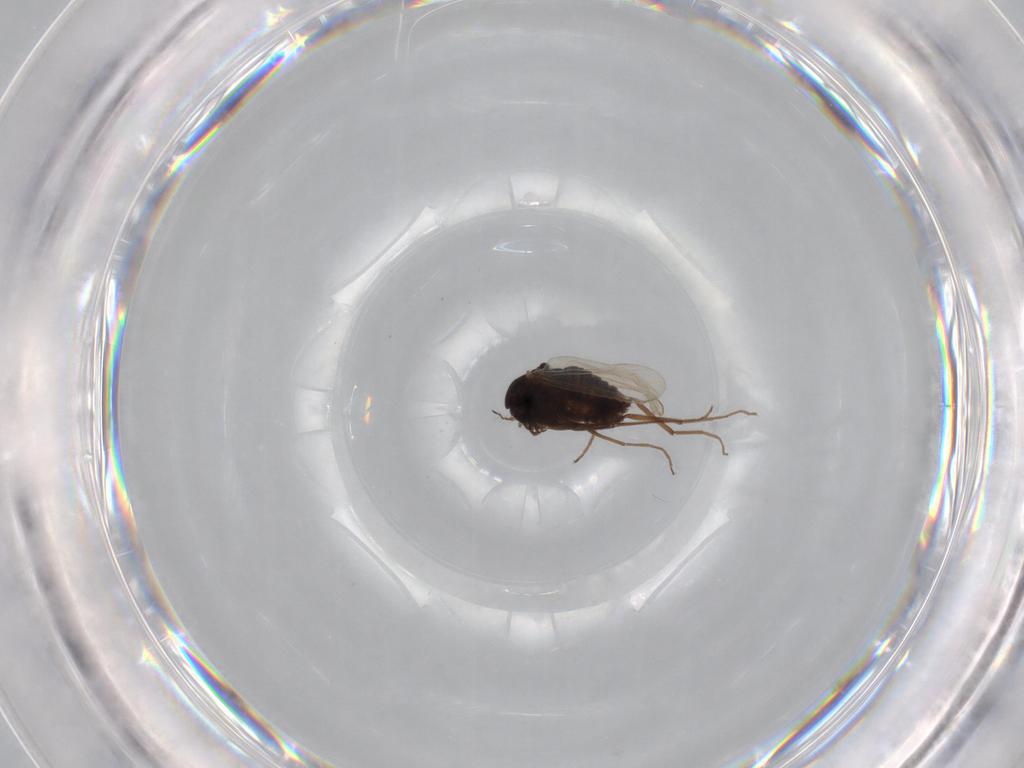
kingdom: Animalia
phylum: Arthropoda
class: Insecta
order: Diptera
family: Chironomidae
